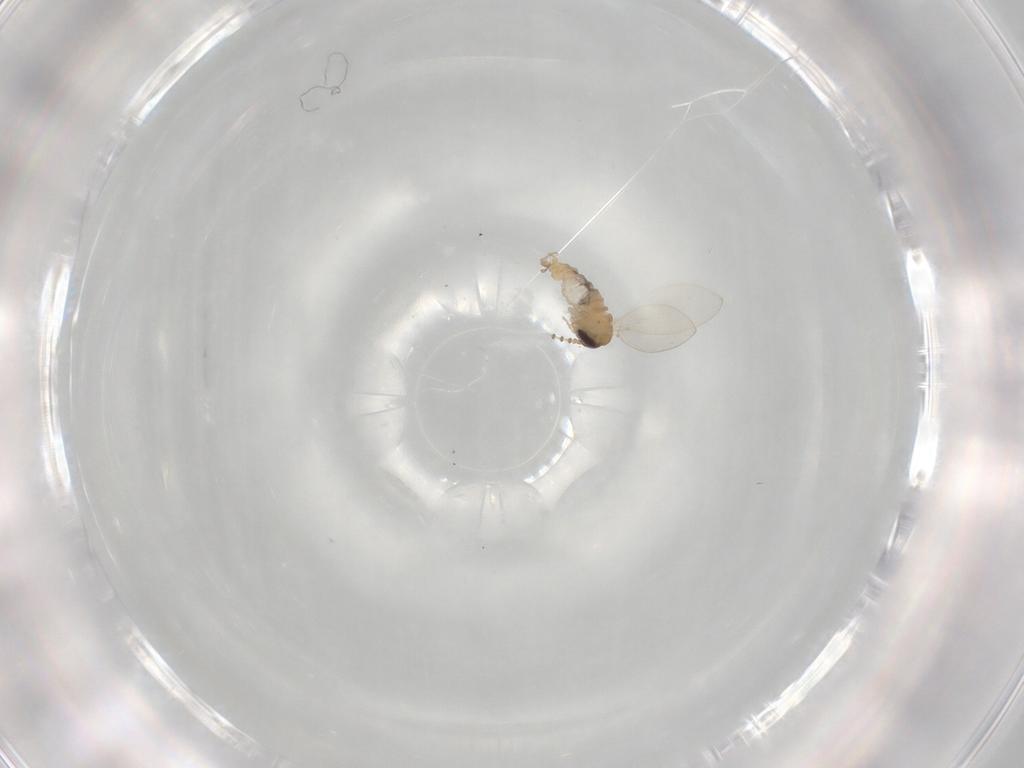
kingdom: Animalia
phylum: Arthropoda
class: Insecta
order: Diptera
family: Psychodidae
